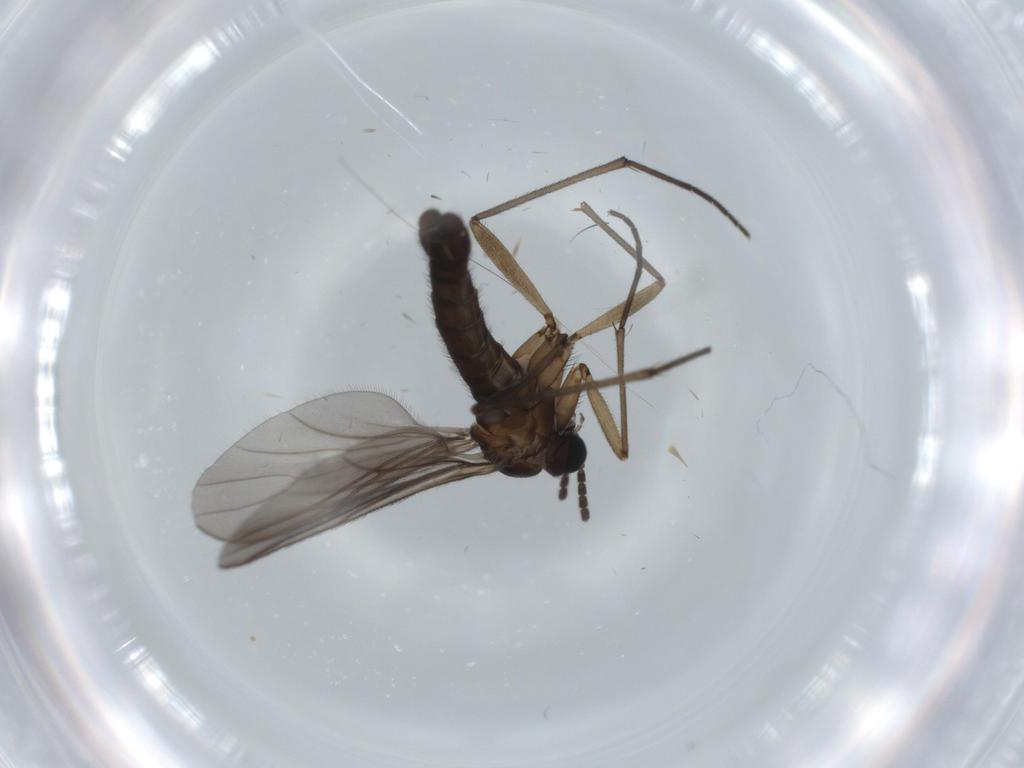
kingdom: Animalia
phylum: Arthropoda
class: Insecta
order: Diptera
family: Sciaridae
